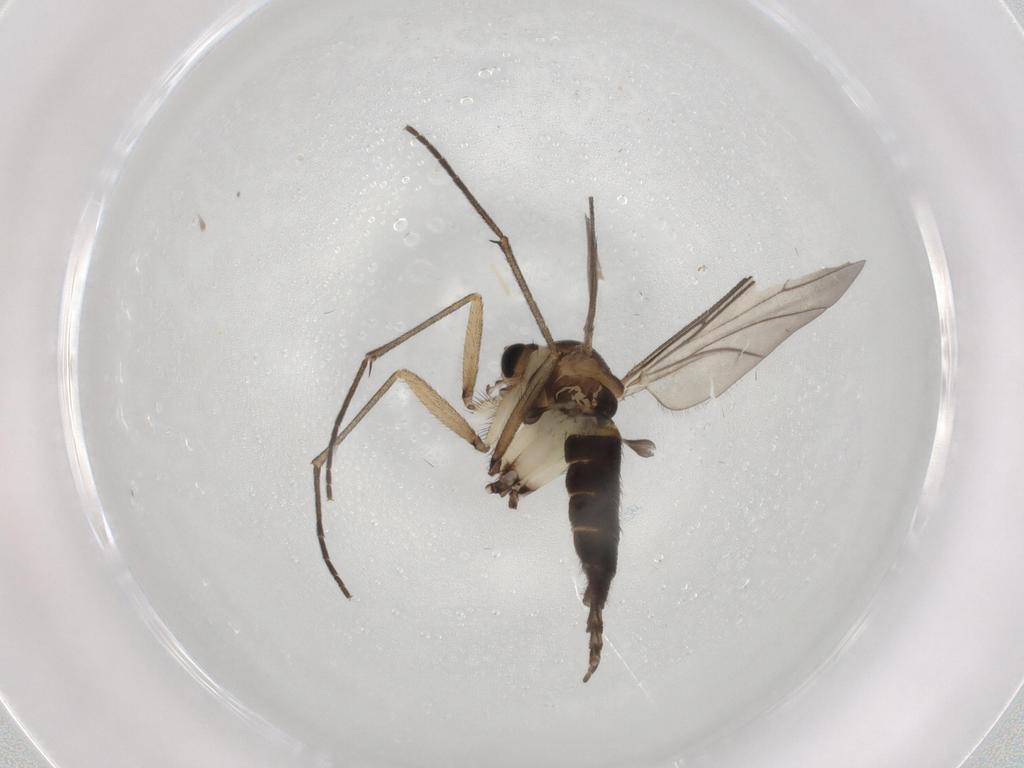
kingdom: Animalia
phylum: Arthropoda
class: Insecta
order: Diptera
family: Sciaridae
